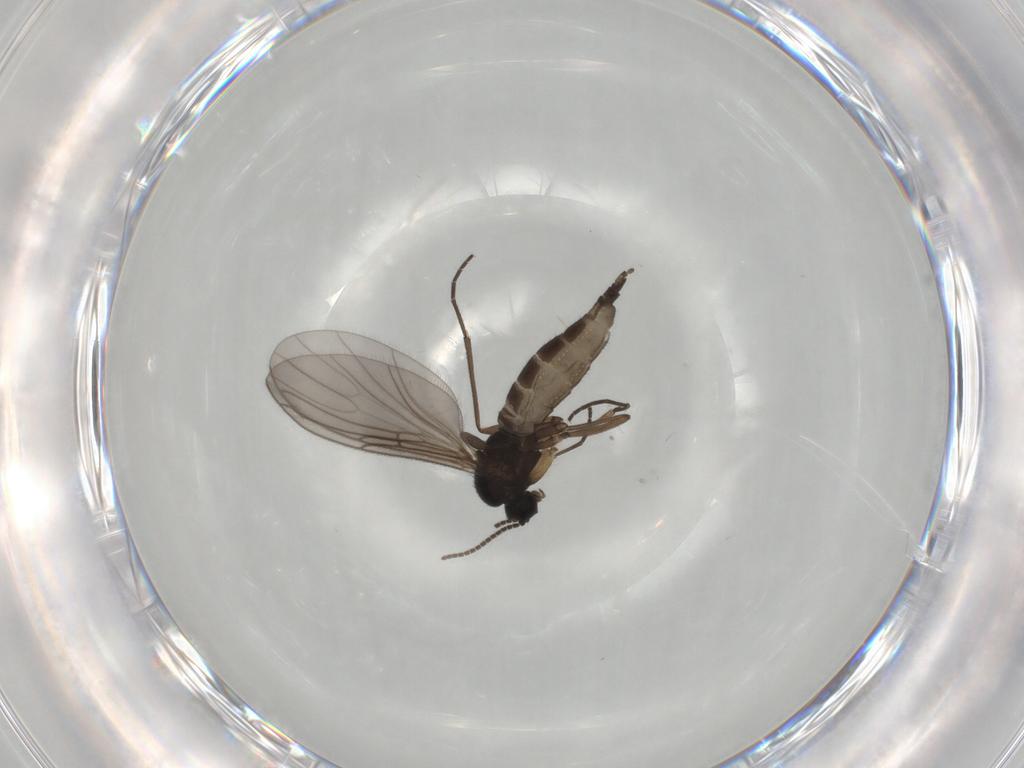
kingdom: Animalia
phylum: Arthropoda
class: Insecta
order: Diptera
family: Sciaridae
